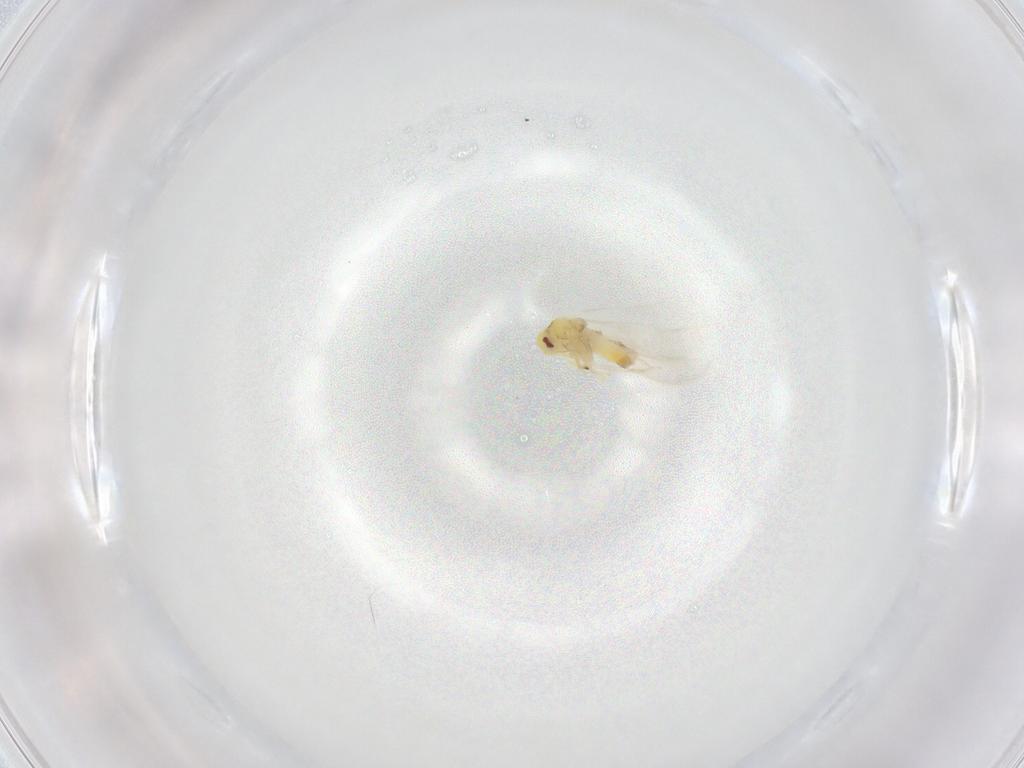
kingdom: Animalia
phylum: Arthropoda
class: Insecta
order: Hemiptera
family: Aleyrodidae
